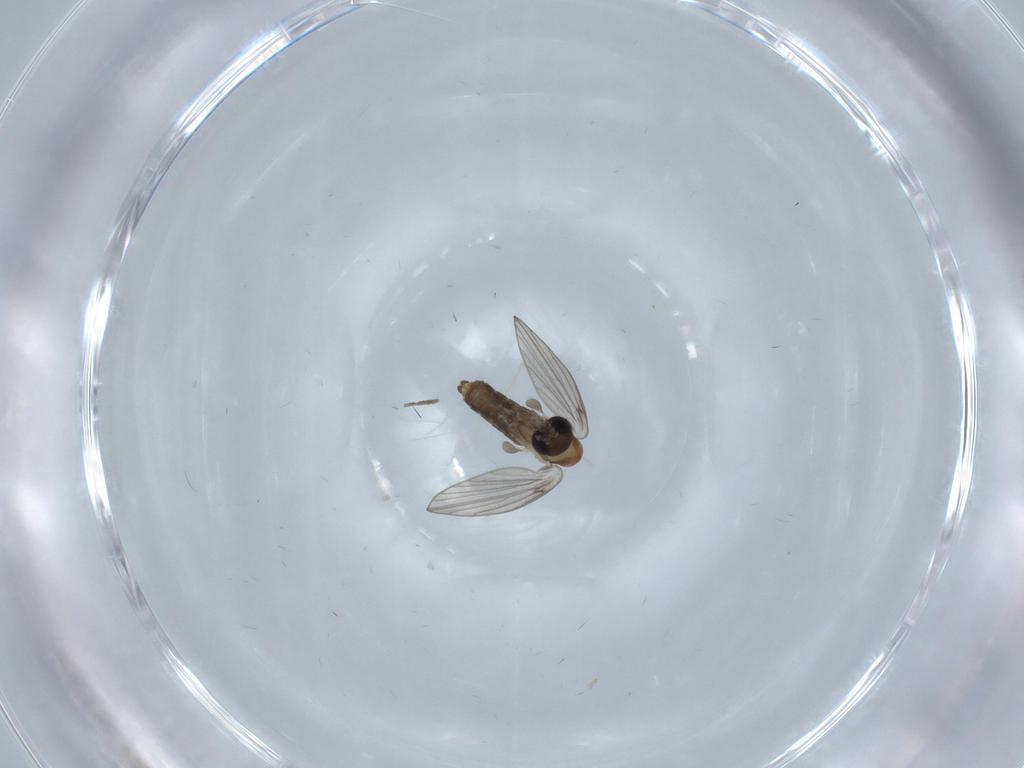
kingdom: Animalia
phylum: Arthropoda
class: Insecta
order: Diptera
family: Psychodidae
